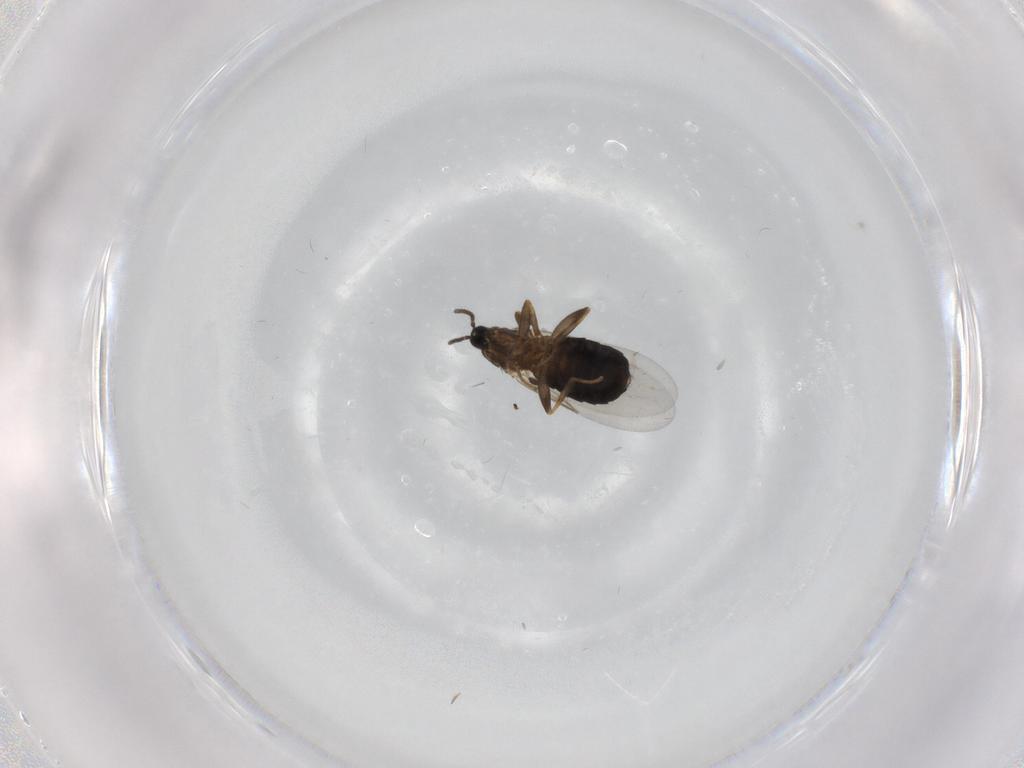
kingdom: Animalia
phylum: Arthropoda
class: Insecta
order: Diptera
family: Scatopsidae
